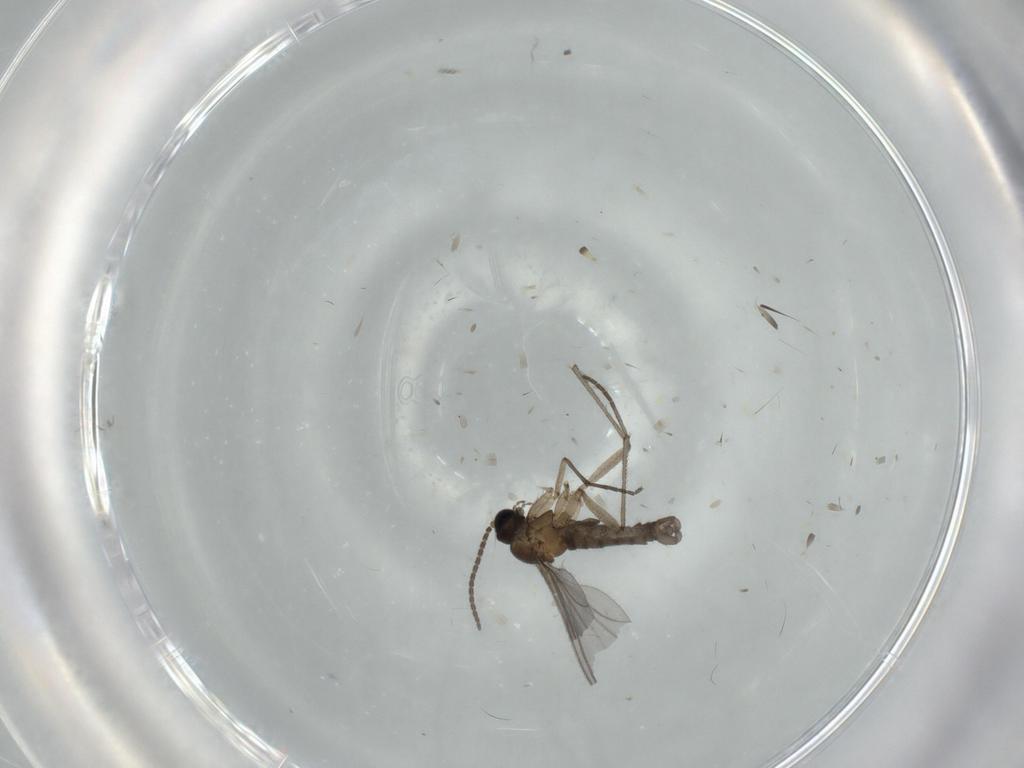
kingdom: Animalia
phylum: Arthropoda
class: Insecta
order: Diptera
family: Sciaridae
